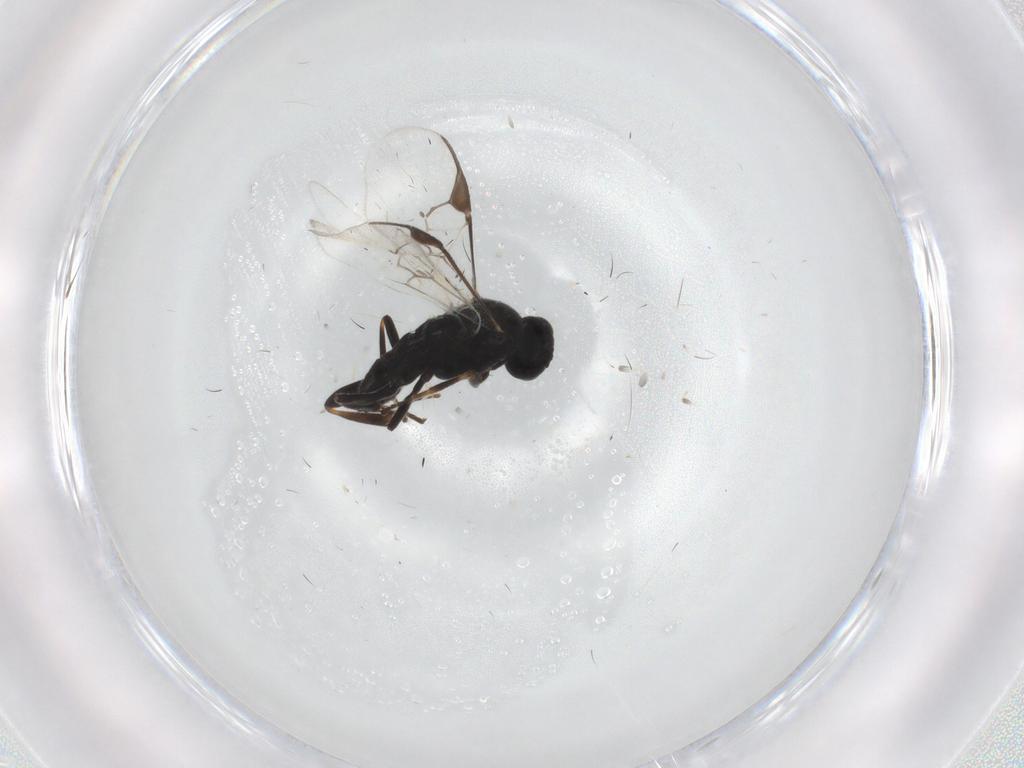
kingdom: Animalia
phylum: Arthropoda
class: Insecta
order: Hymenoptera
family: Braconidae
